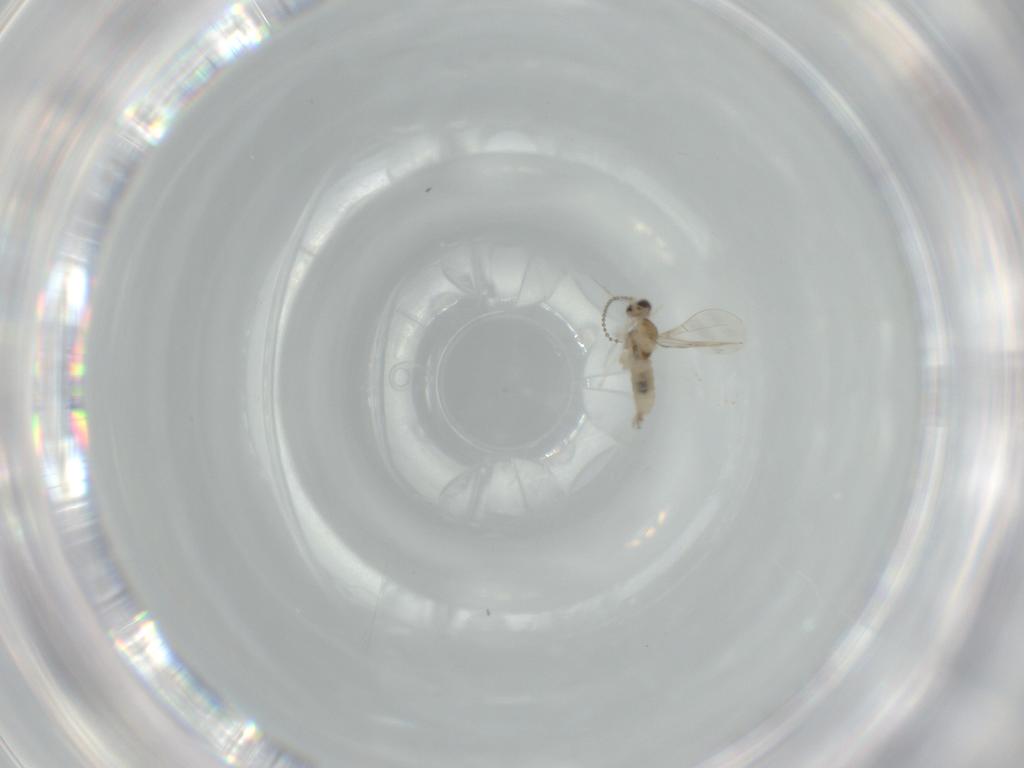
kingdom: Animalia
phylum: Arthropoda
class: Insecta
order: Diptera
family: Cecidomyiidae
